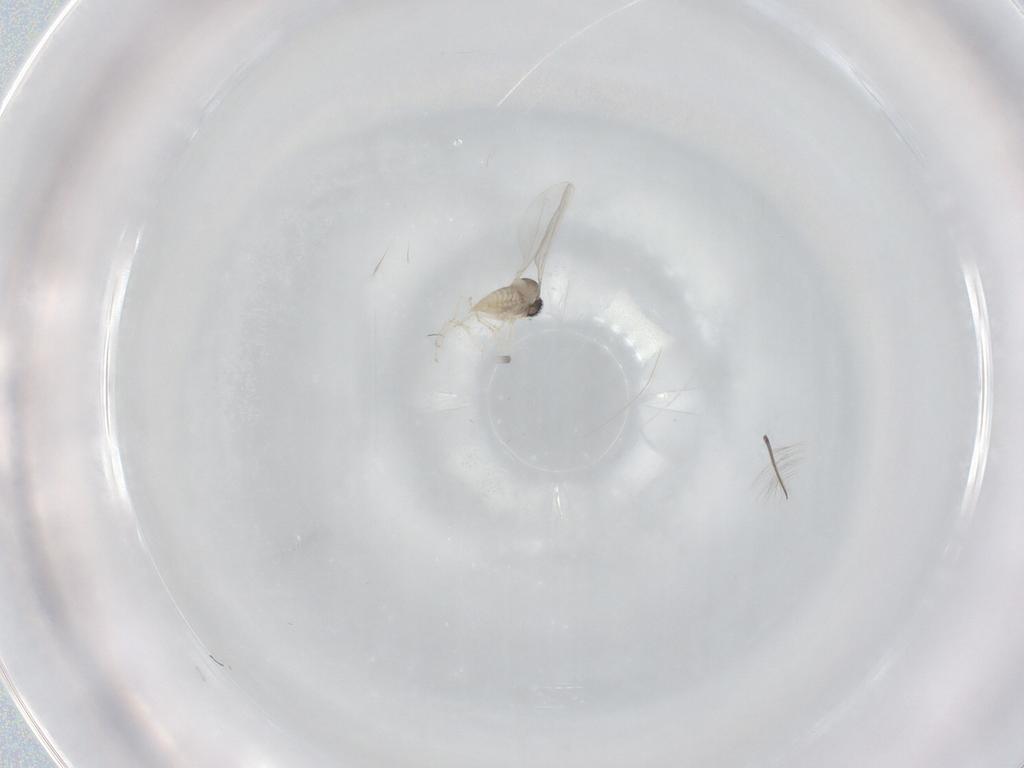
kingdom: Animalia
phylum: Arthropoda
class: Insecta
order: Diptera
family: Cecidomyiidae
